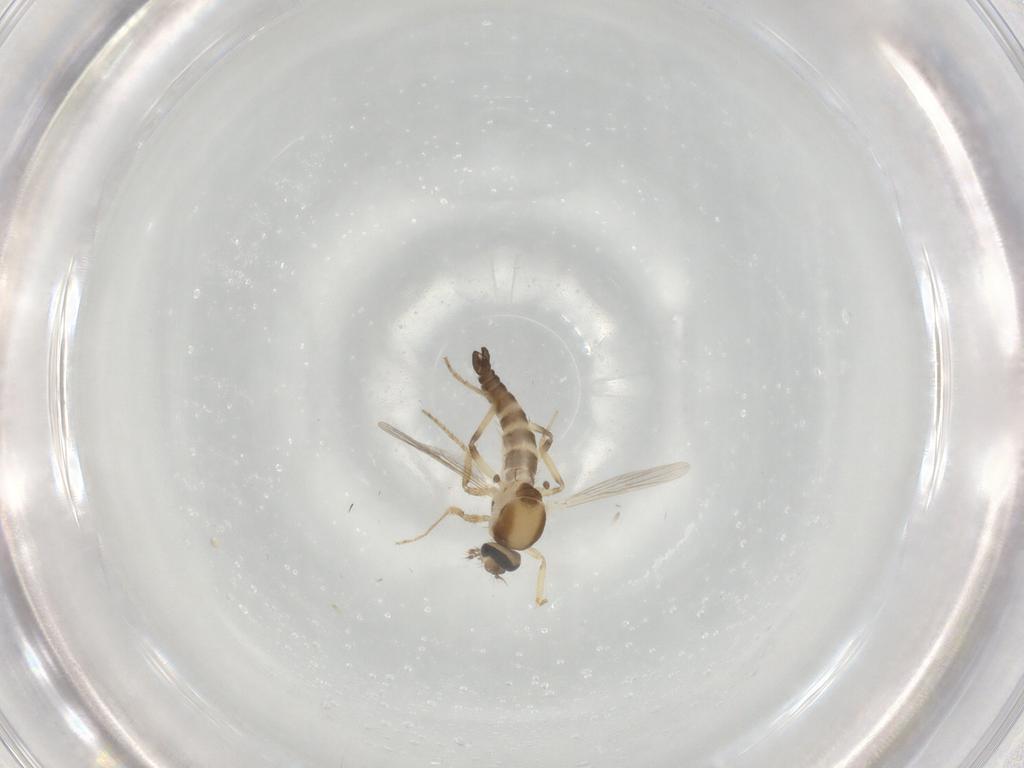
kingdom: Animalia
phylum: Arthropoda
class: Insecta
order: Diptera
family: Ceratopogonidae
